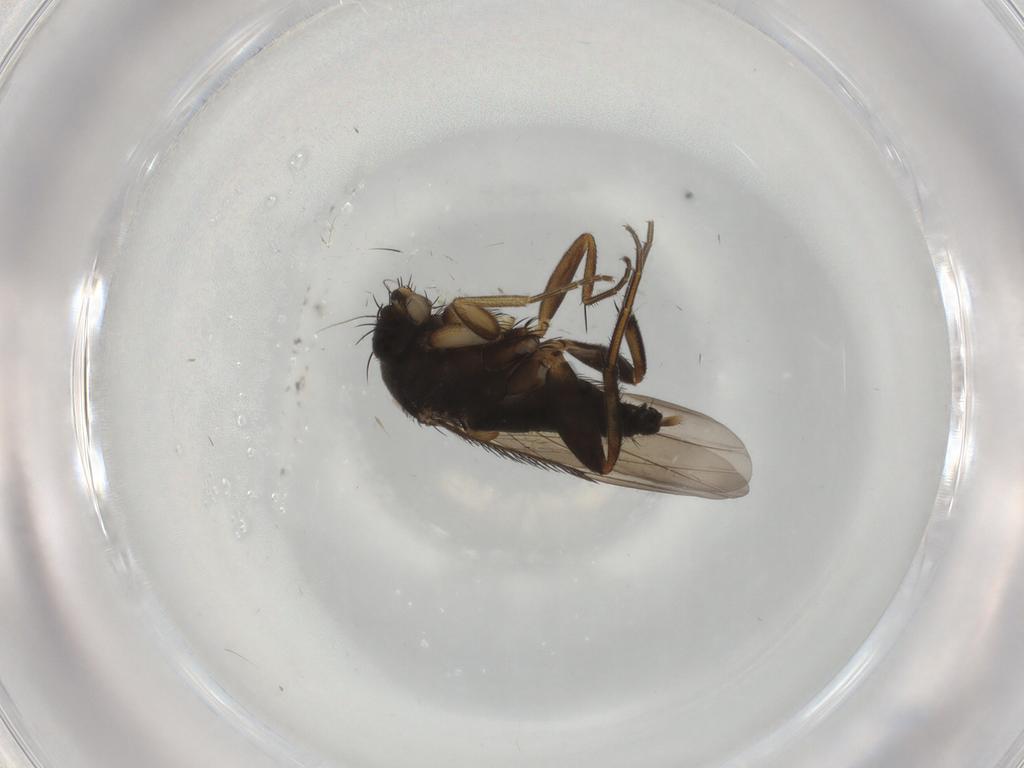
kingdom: Animalia
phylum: Arthropoda
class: Insecta
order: Diptera
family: Phoridae
